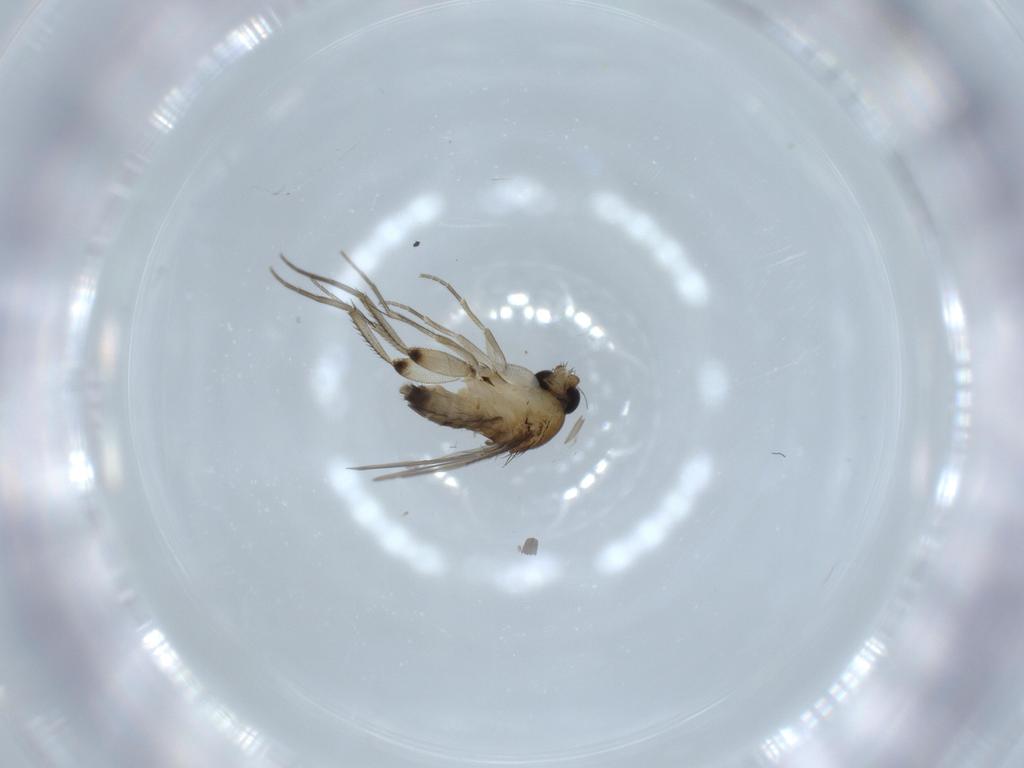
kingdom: Animalia
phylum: Arthropoda
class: Insecta
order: Diptera
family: Phoridae
